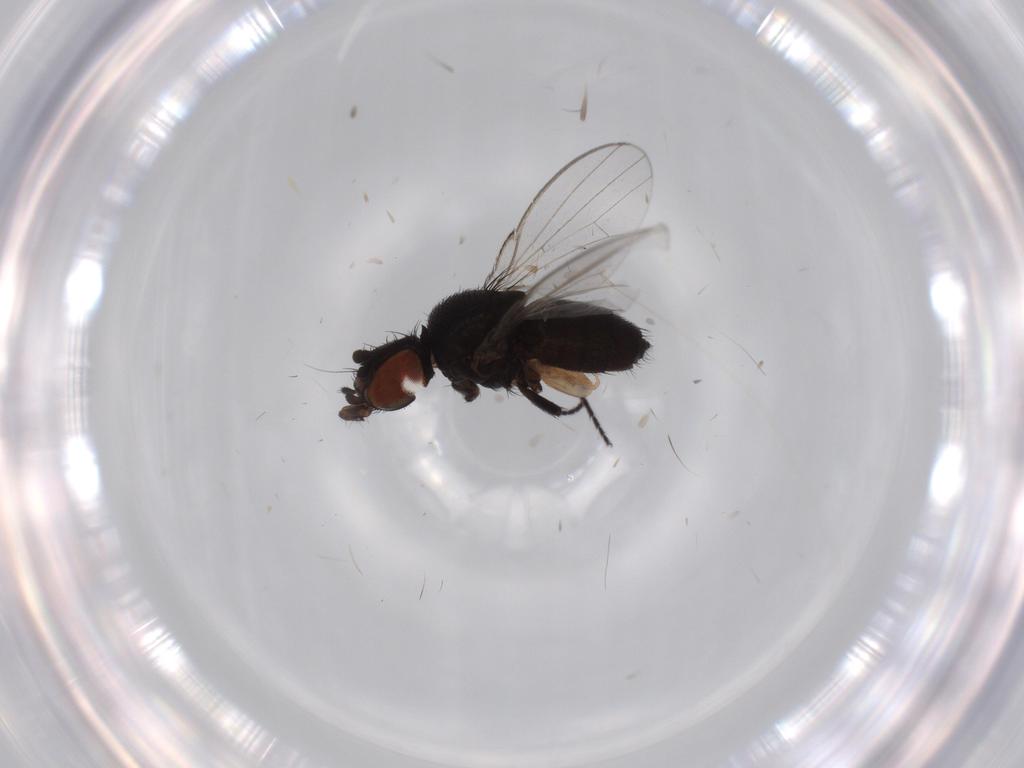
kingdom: Animalia
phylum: Arthropoda
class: Insecta
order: Diptera
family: Milichiidae
